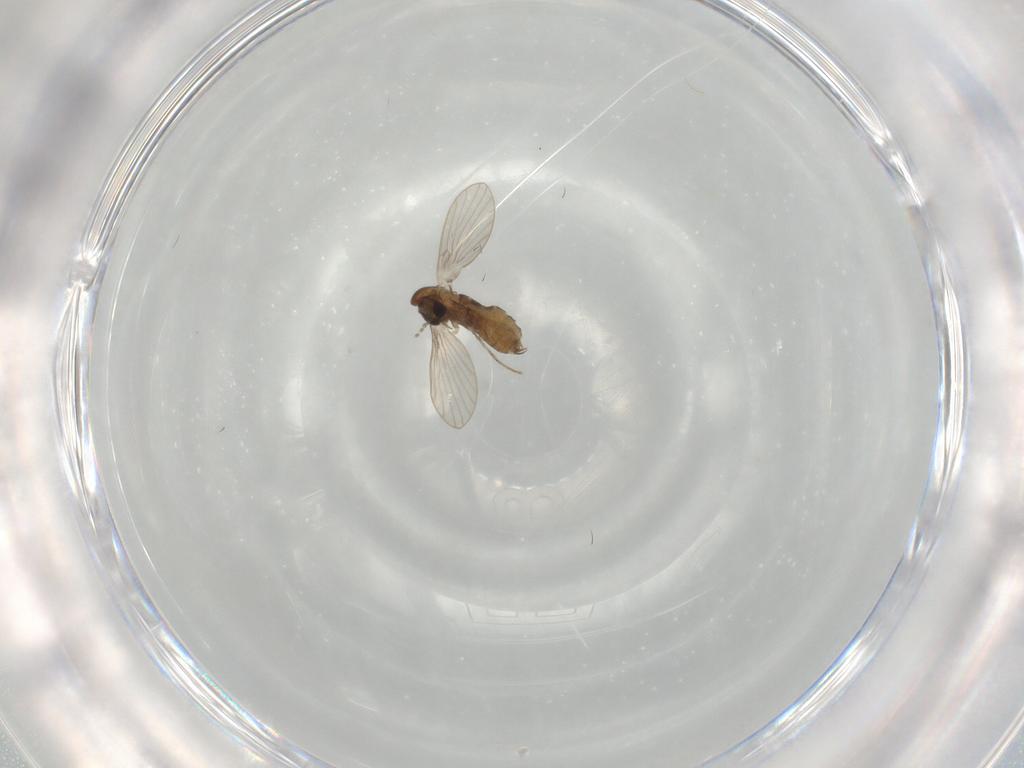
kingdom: Animalia
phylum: Arthropoda
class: Insecta
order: Diptera
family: Sciaridae
